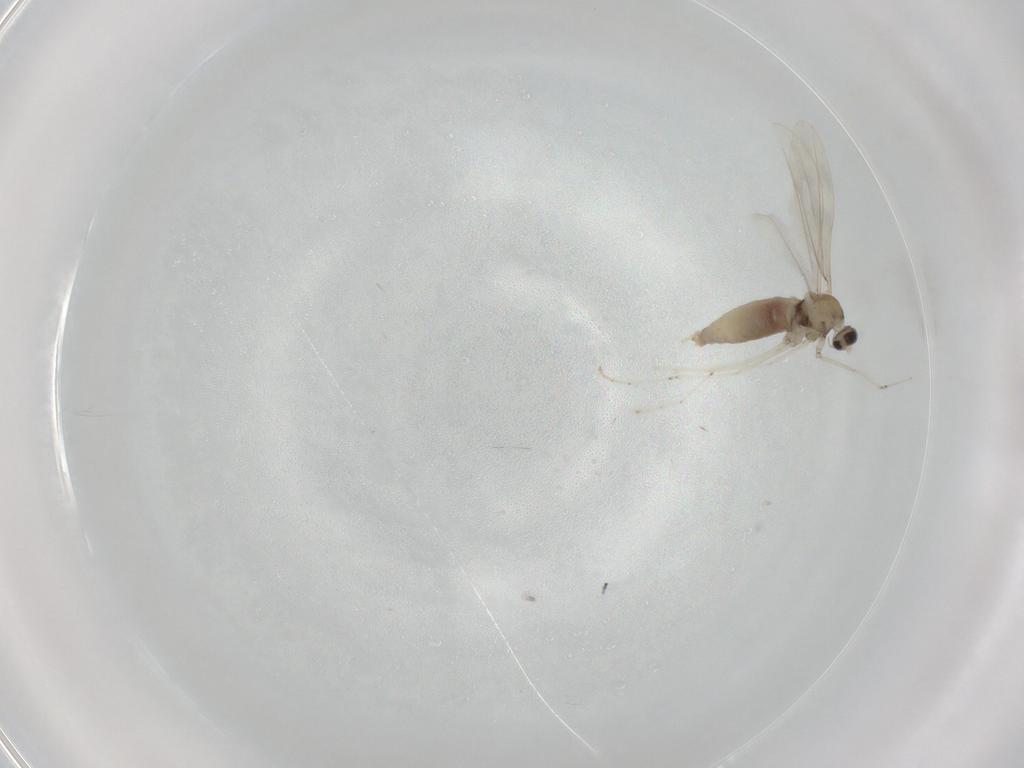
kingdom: Animalia
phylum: Arthropoda
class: Insecta
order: Diptera
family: Cecidomyiidae
